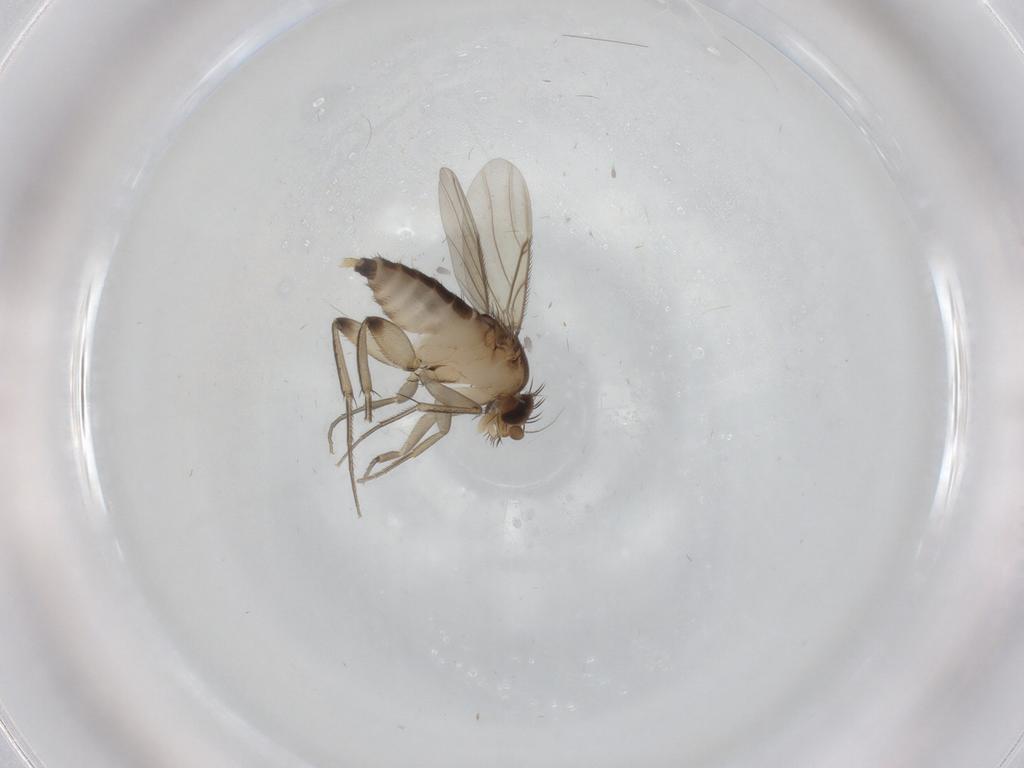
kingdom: Animalia
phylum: Arthropoda
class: Insecta
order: Diptera
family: Phoridae
